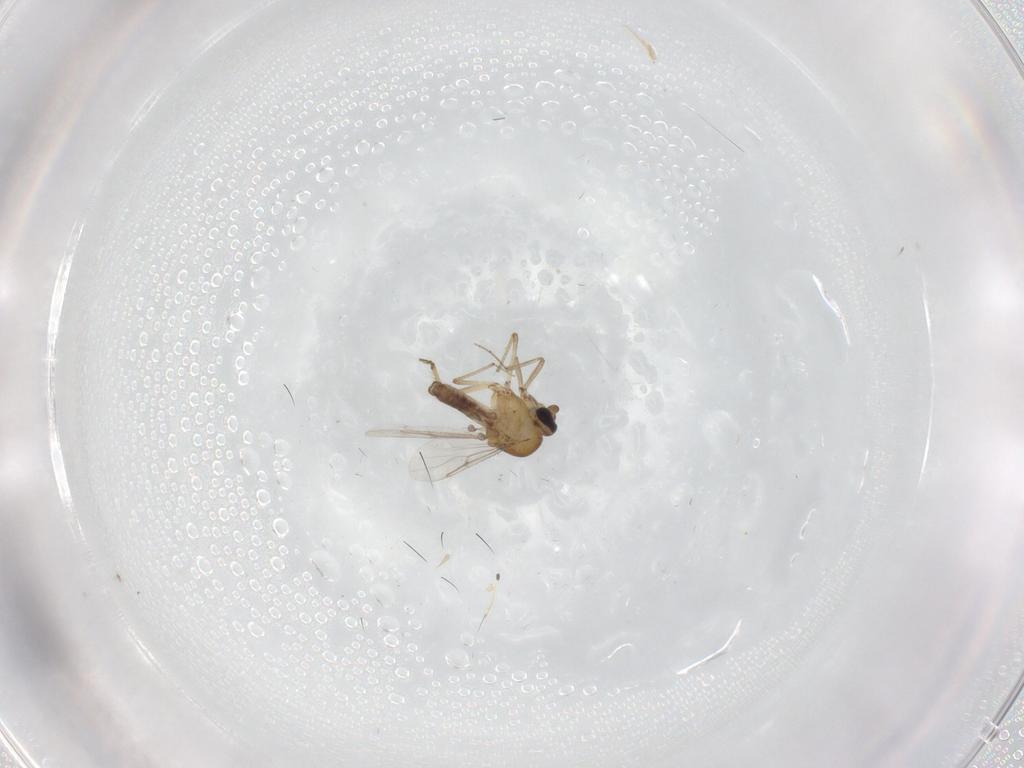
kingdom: Animalia
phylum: Arthropoda
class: Insecta
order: Diptera
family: Ceratopogonidae
